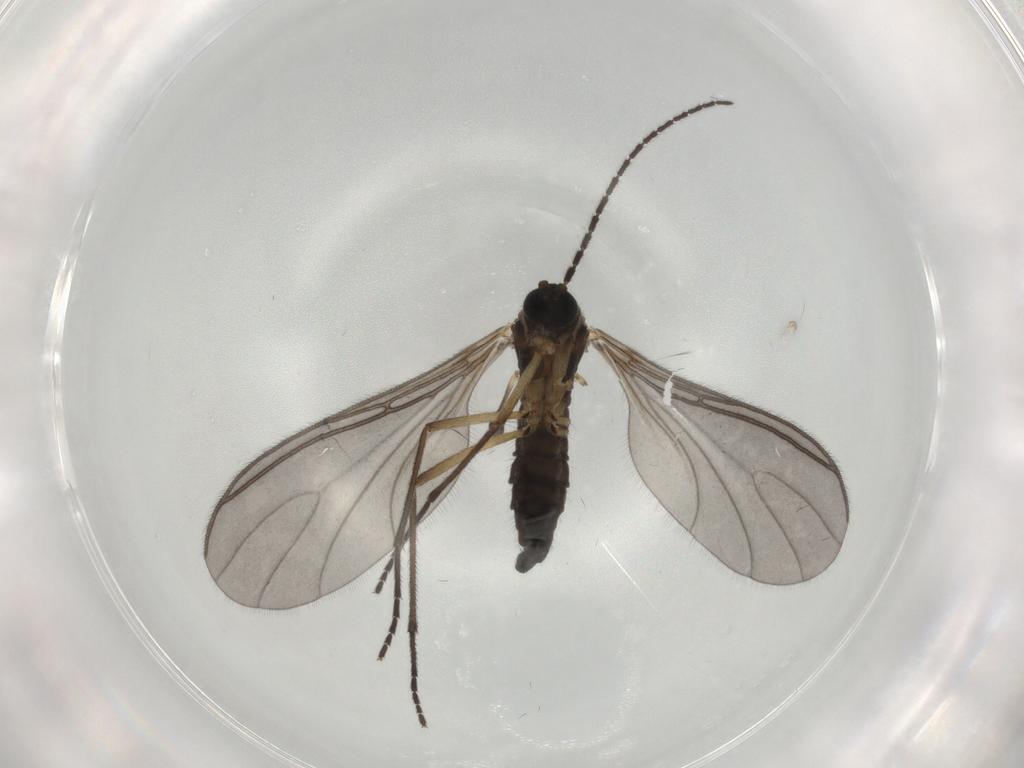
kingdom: Animalia
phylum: Arthropoda
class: Insecta
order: Diptera
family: Sciaridae
